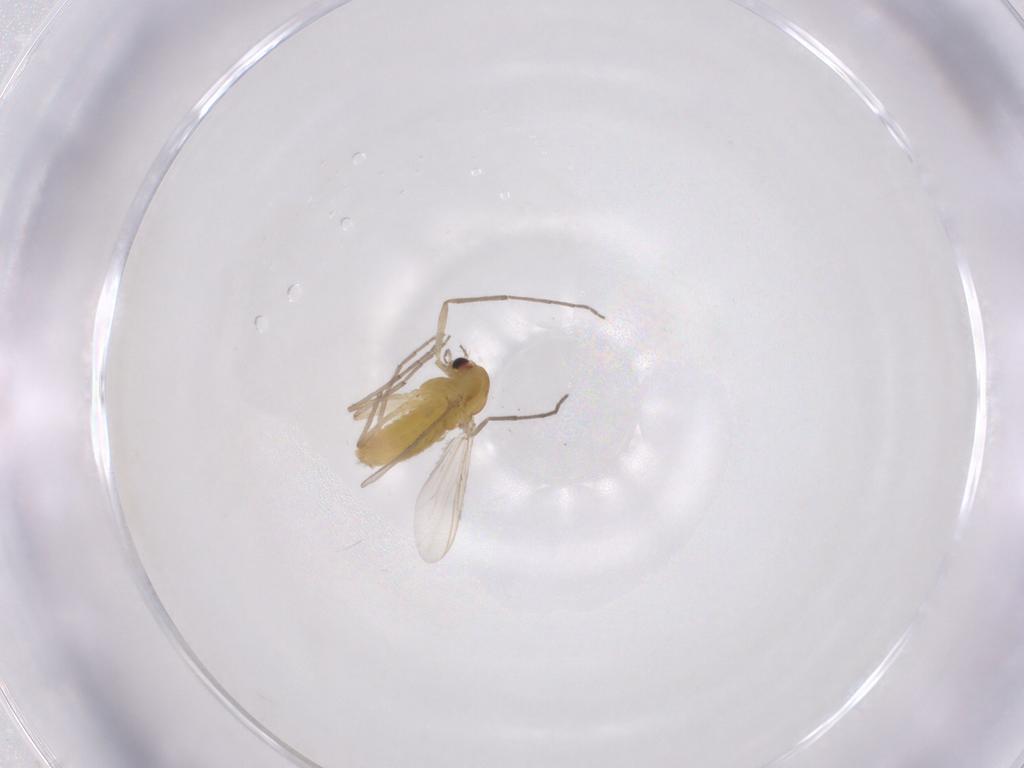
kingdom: Animalia
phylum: Arthropoda
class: Insecta
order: Diptera
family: Chironomidae
